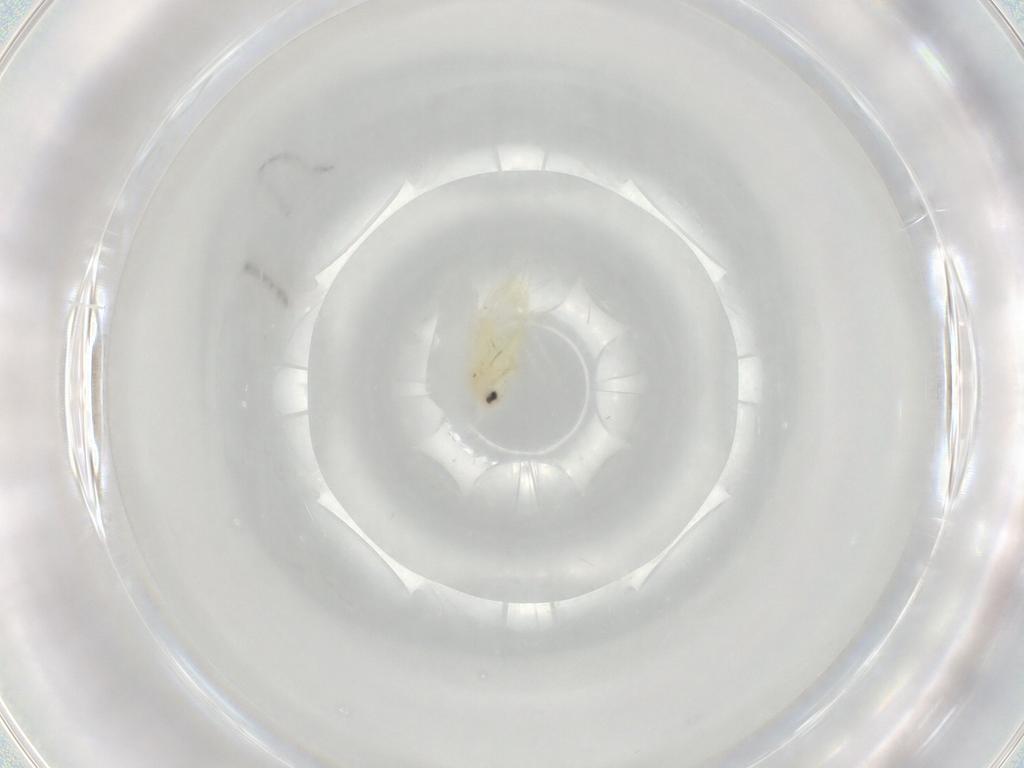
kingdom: Animalia
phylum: Arthropoda
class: Insecta
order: Hemiptera
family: Aleyrodidae
